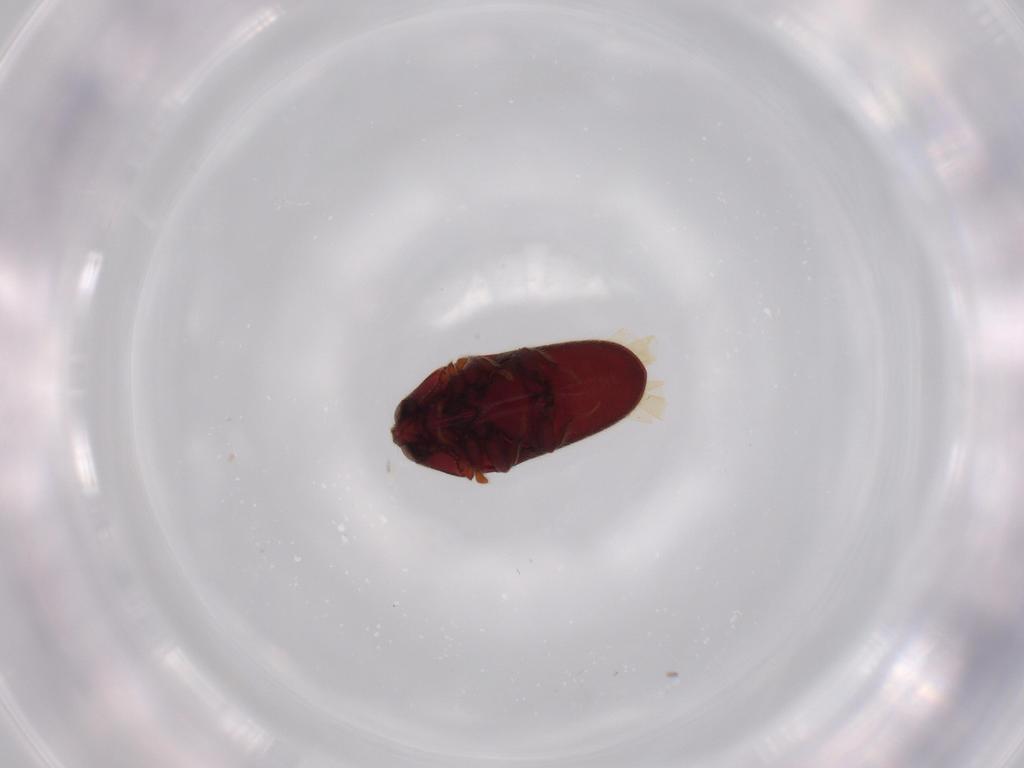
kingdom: Animalia
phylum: Arthropoda
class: Insecta
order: Coleoptera
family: Throscidae
